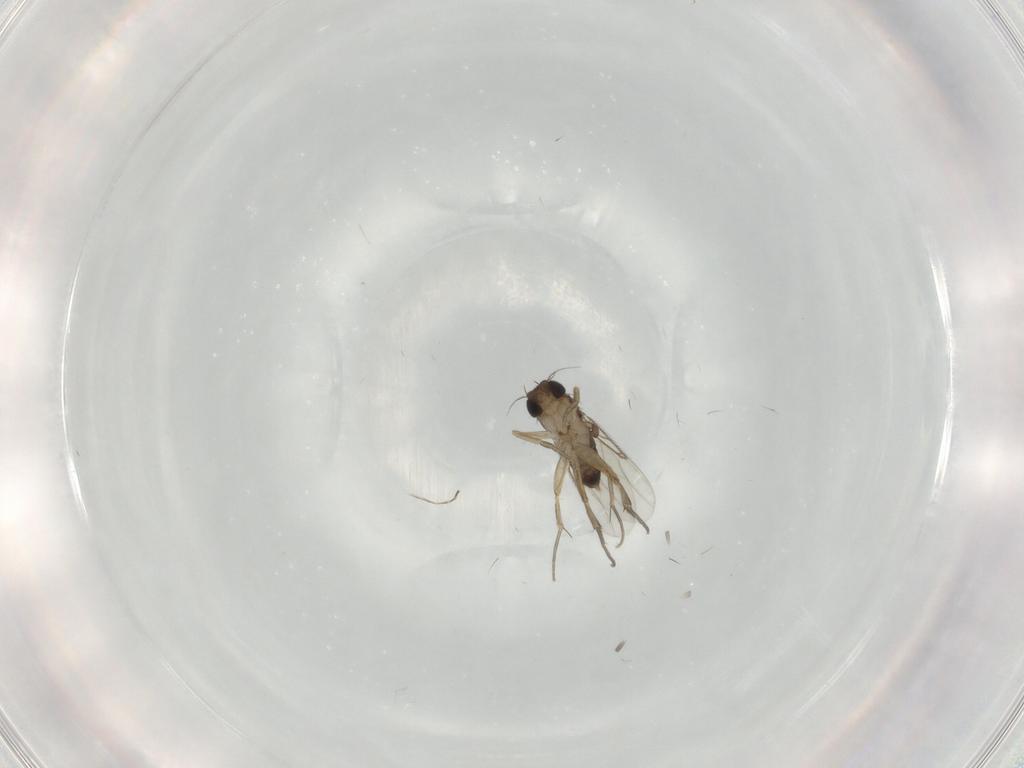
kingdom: Animalia
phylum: Arthropoda
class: Insecta
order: Diptera
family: Phoridae
